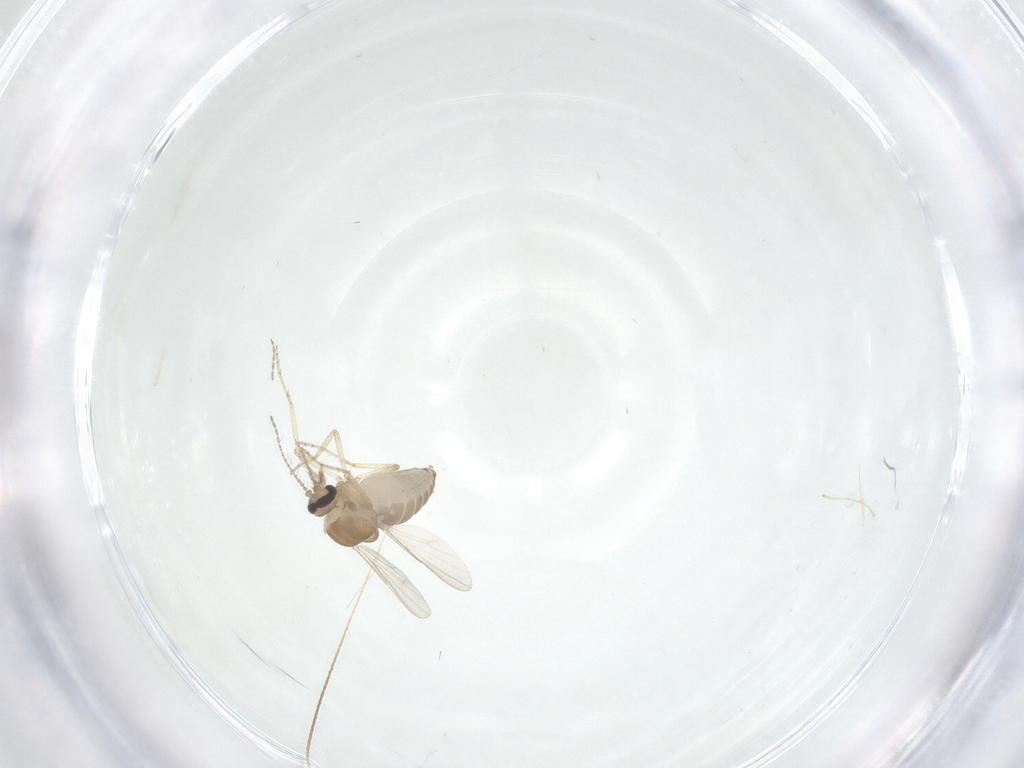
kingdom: Animalia
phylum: Arthropoda
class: Insecta
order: Diptera
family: Ceratopogonidae
